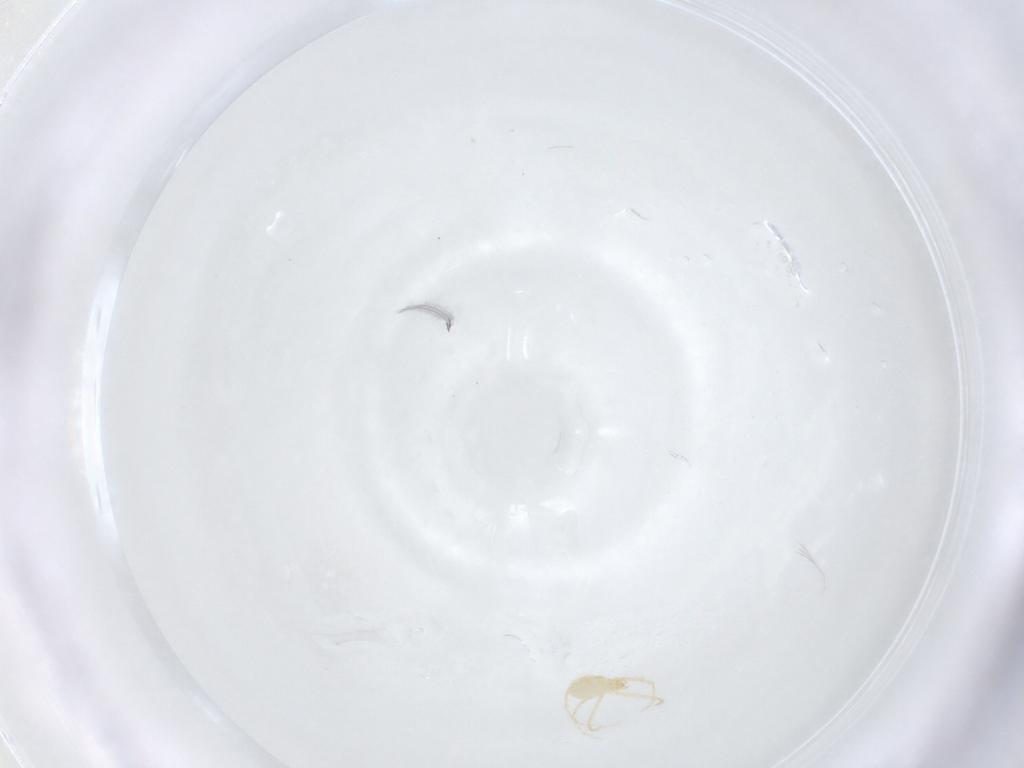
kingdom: Animalia
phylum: Arthropoda
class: Arachnida
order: Trombidiformes
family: Erythraeidae
